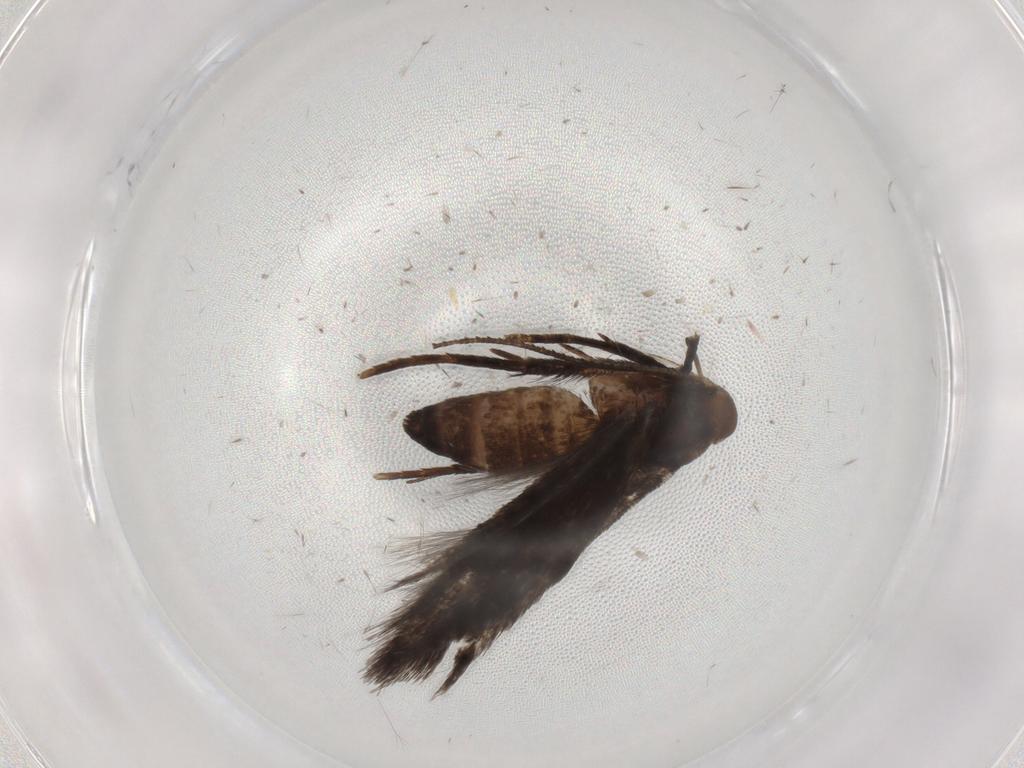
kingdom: Animalia
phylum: Arthropoda
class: Insecta
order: Lepidoptera
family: Cosmopterigidae
